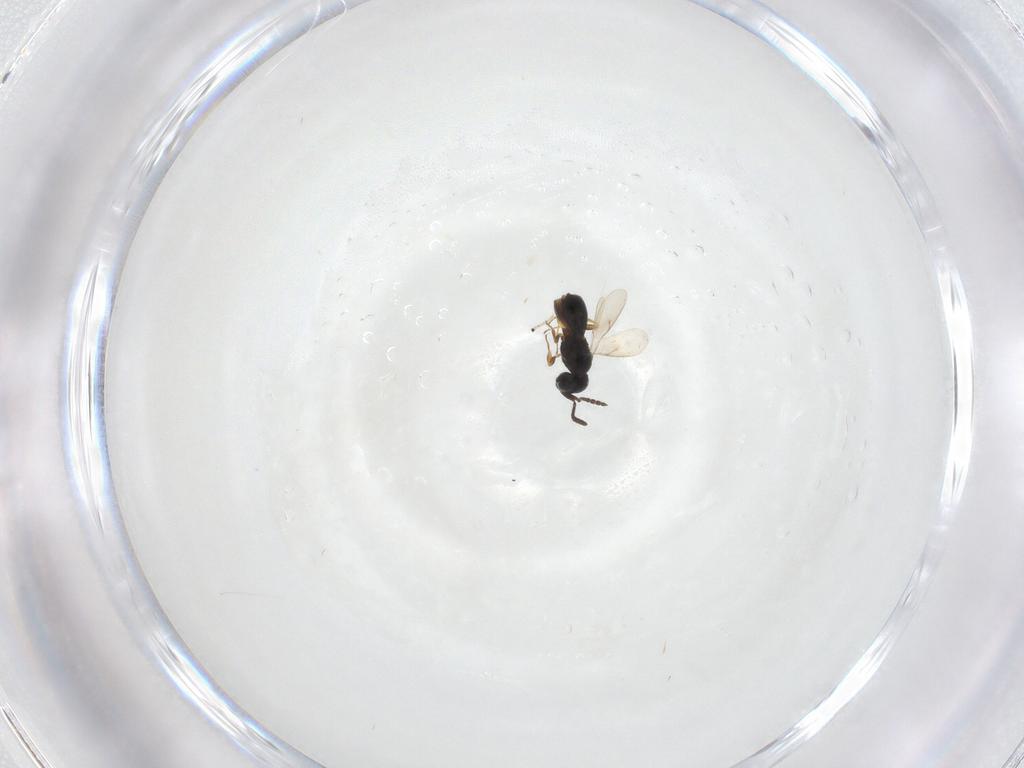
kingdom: Animalia
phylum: Arthropoda
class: Insecta
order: Hymenoptera
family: Scelionidae
